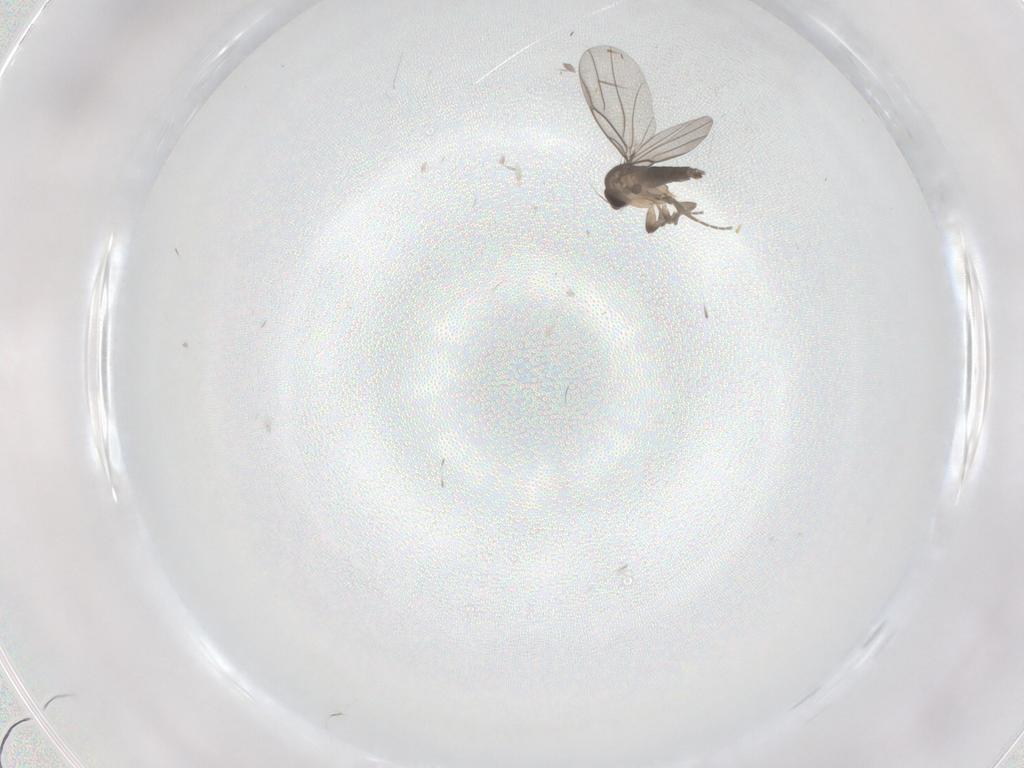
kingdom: Animalia
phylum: Arthropoda
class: Insecta
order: Diptera
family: Phoridae
